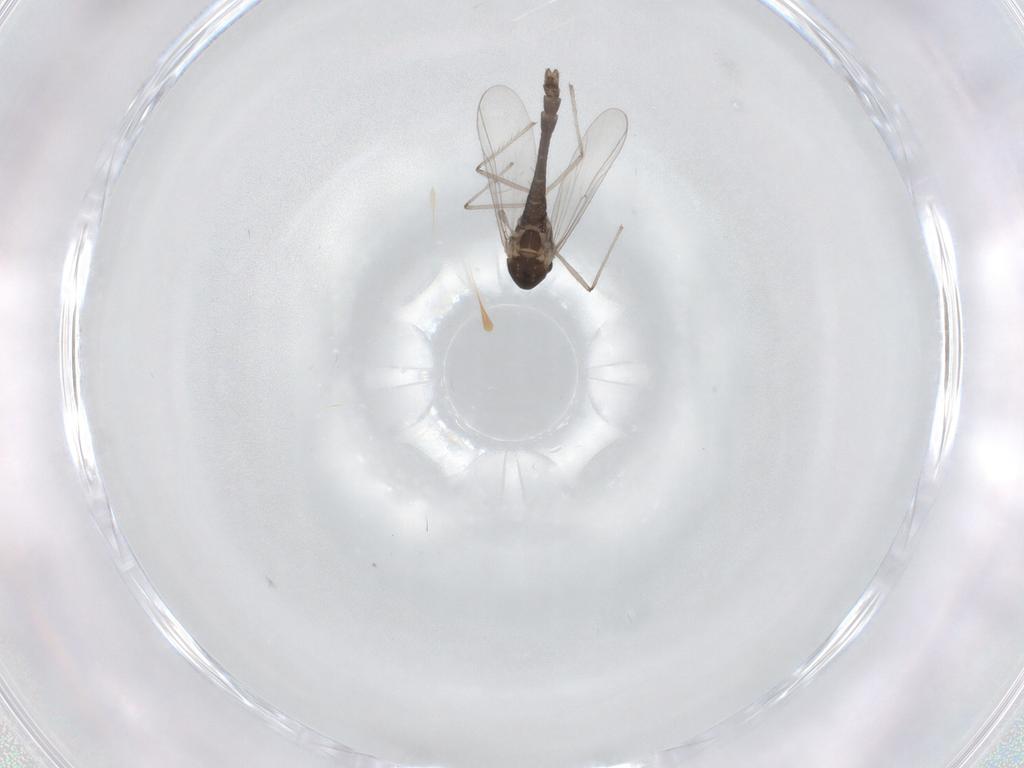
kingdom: Animalia
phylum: Arthropoda
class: Insecta
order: Diptera
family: Chironomidae
